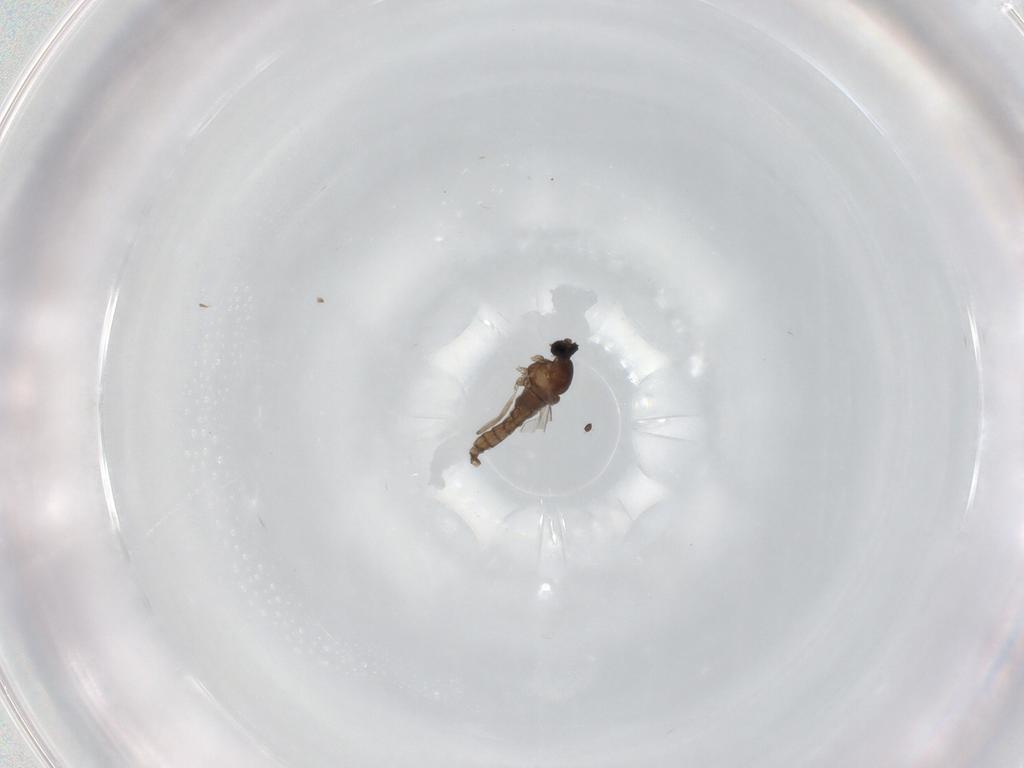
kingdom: Animalia
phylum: Arthropoda
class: Insecta
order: Diptera
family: Cecidomyiidae
